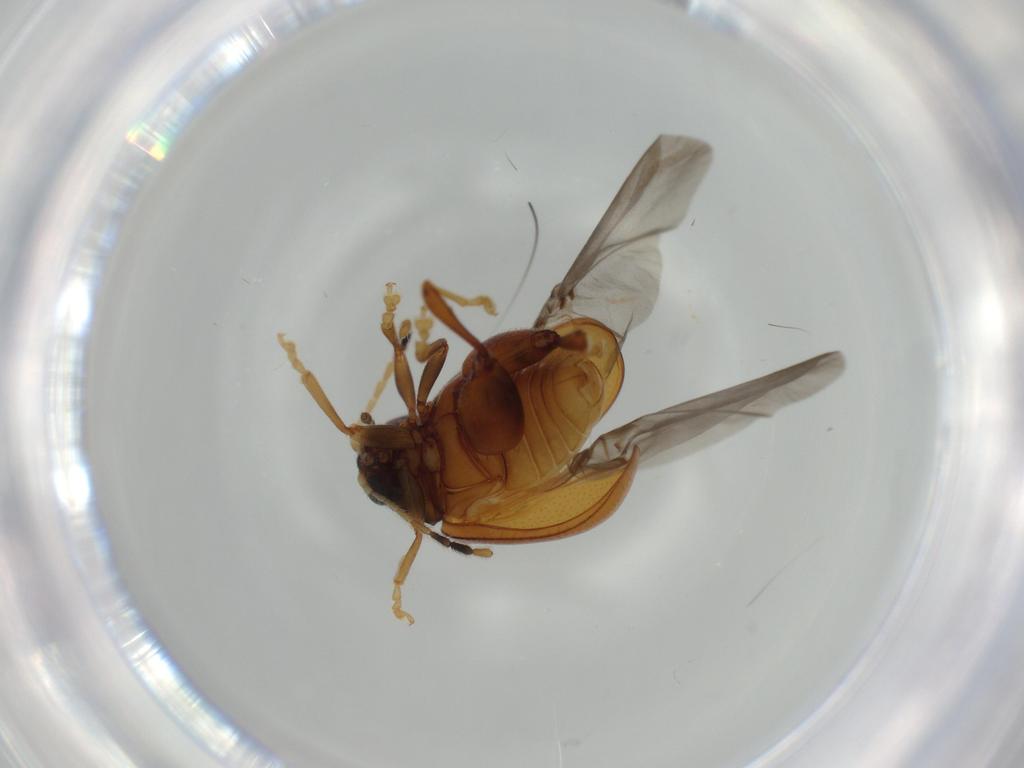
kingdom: Animalia
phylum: Arthropoda
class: Insecta
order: Coleoptera
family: Chrysomelidae
